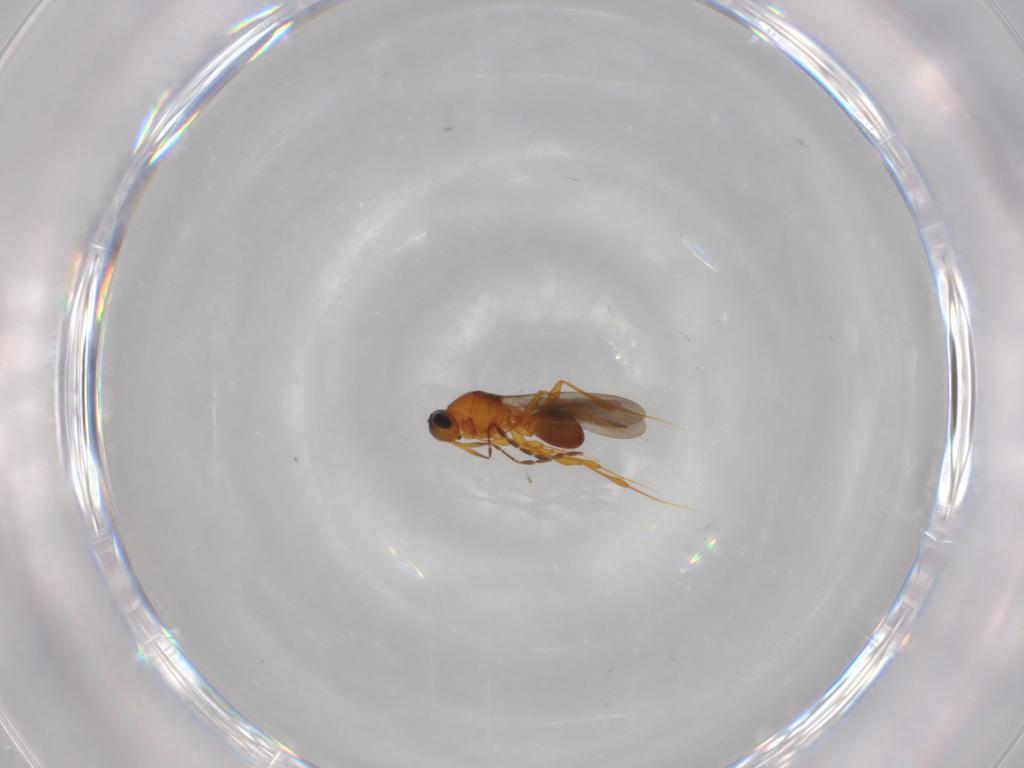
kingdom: Animalia
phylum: Arthropoda
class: Insecta
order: Hymenoptera
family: Platygastridae
